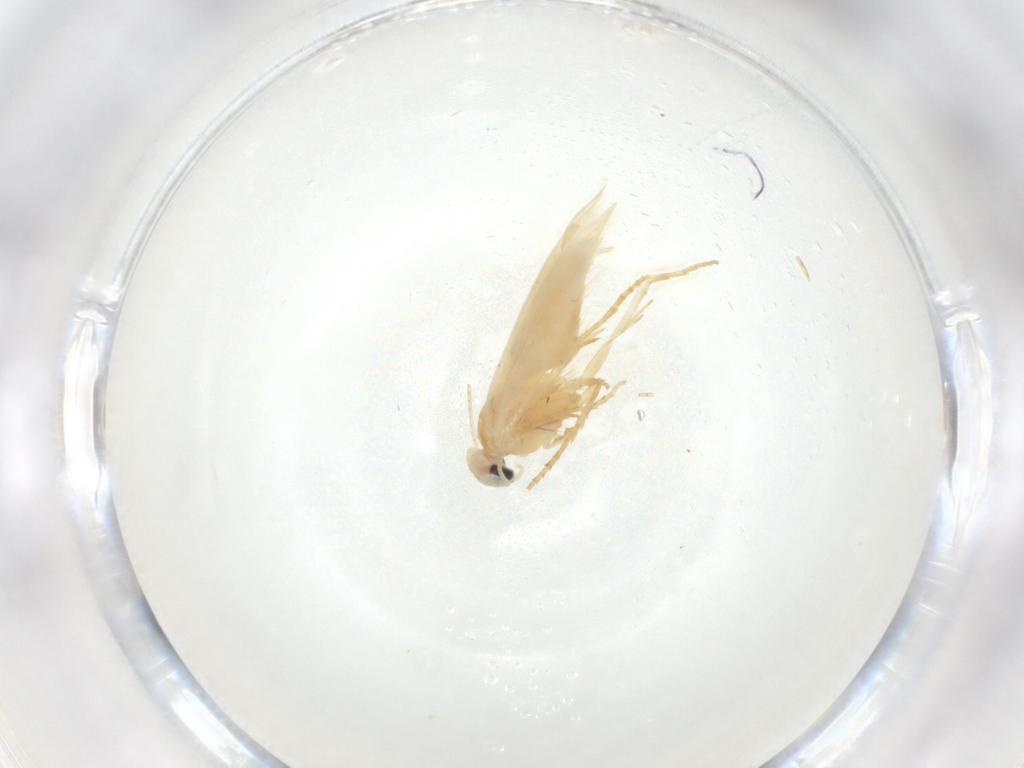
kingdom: Animalia
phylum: Arthropoda
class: Insecta
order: Lepidoptera
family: Bucculatricidae
